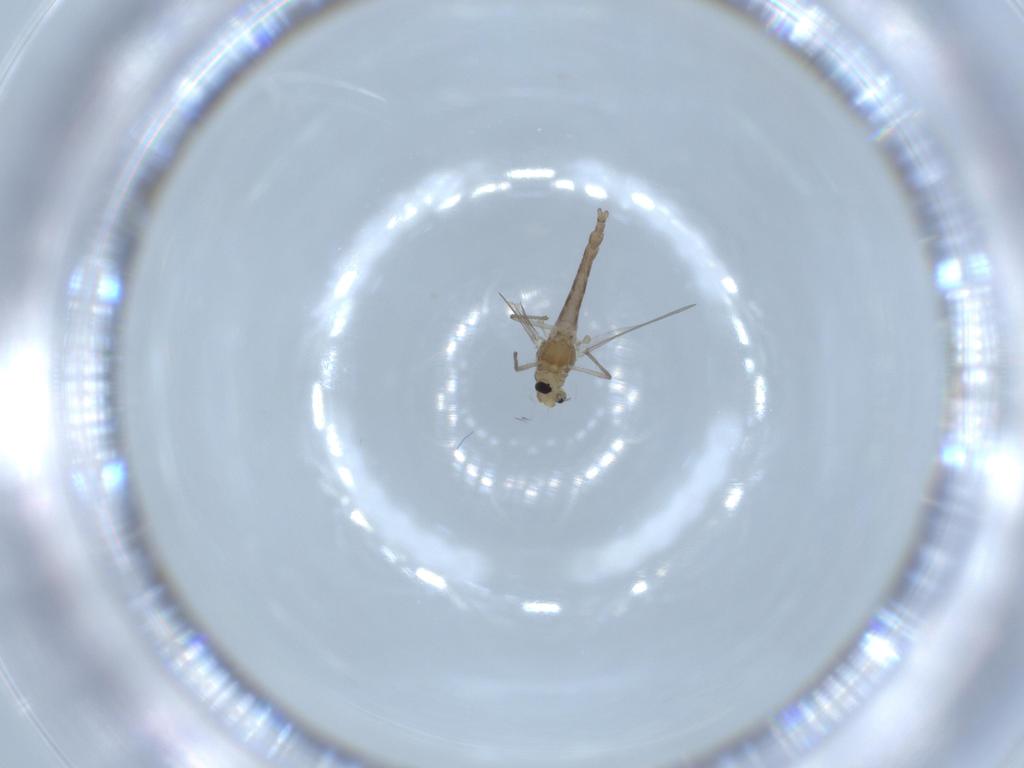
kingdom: Animalia
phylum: Arthropoda
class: Insecta
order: Diptera
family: Chironomidae
